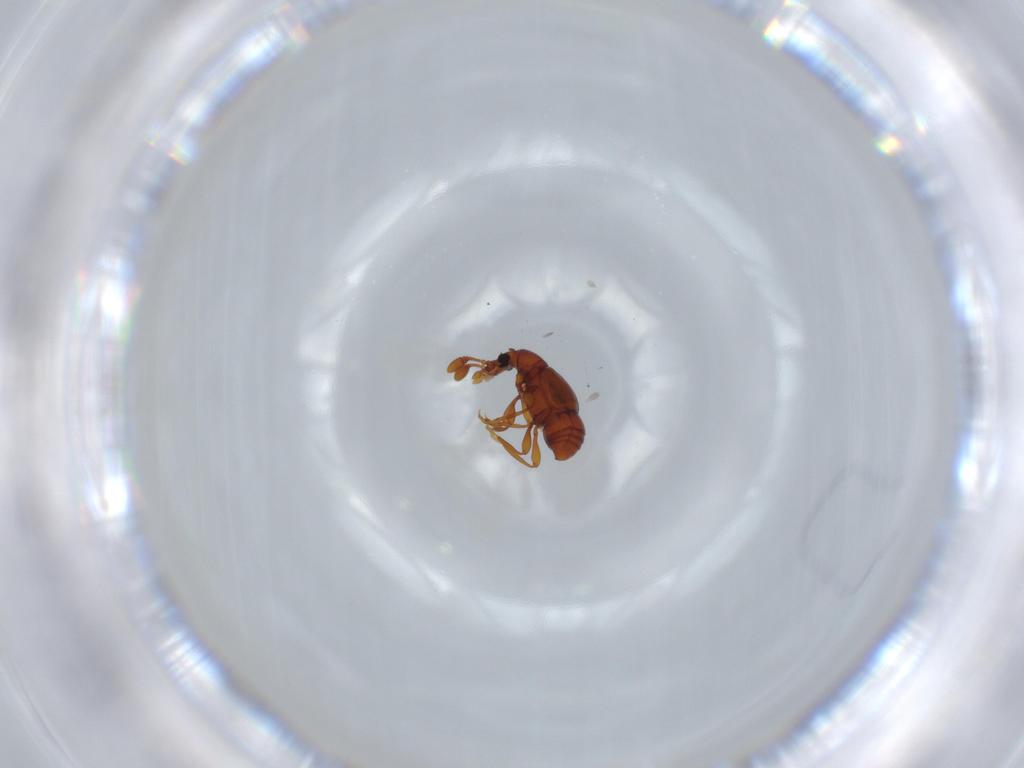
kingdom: Animalia
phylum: Arthropoda
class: Insecta
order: Coleoptera
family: Staphylinidae
